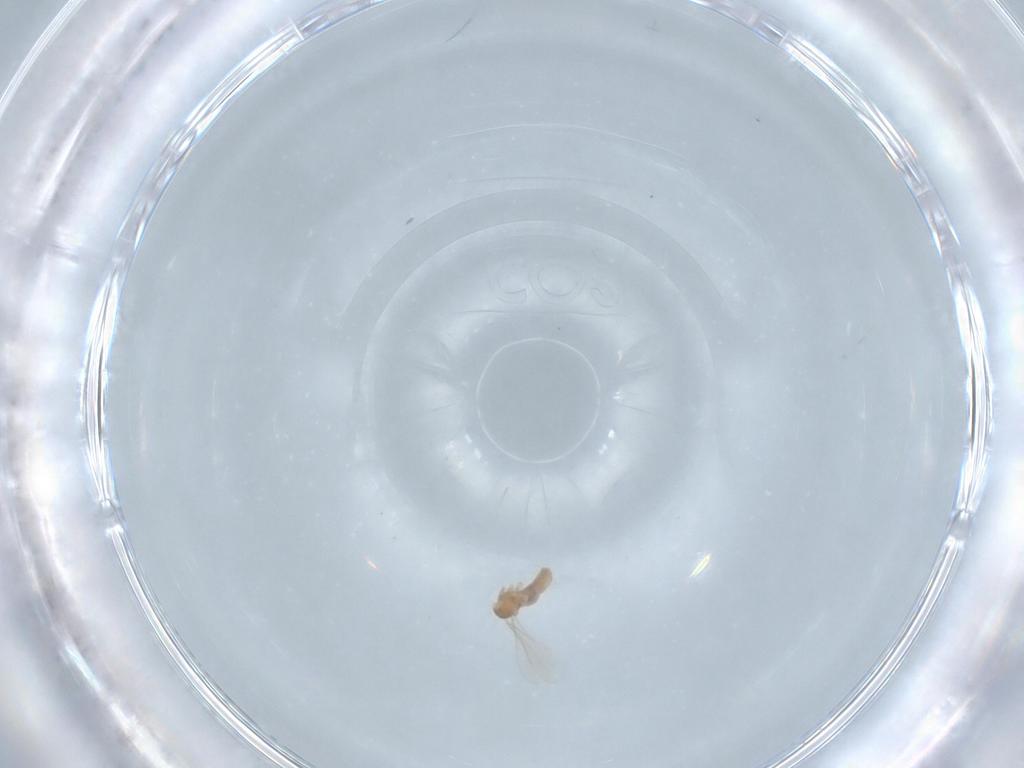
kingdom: Animalia
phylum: Arthropoda
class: Insecta
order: Diptera
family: Cecidomyiidae
